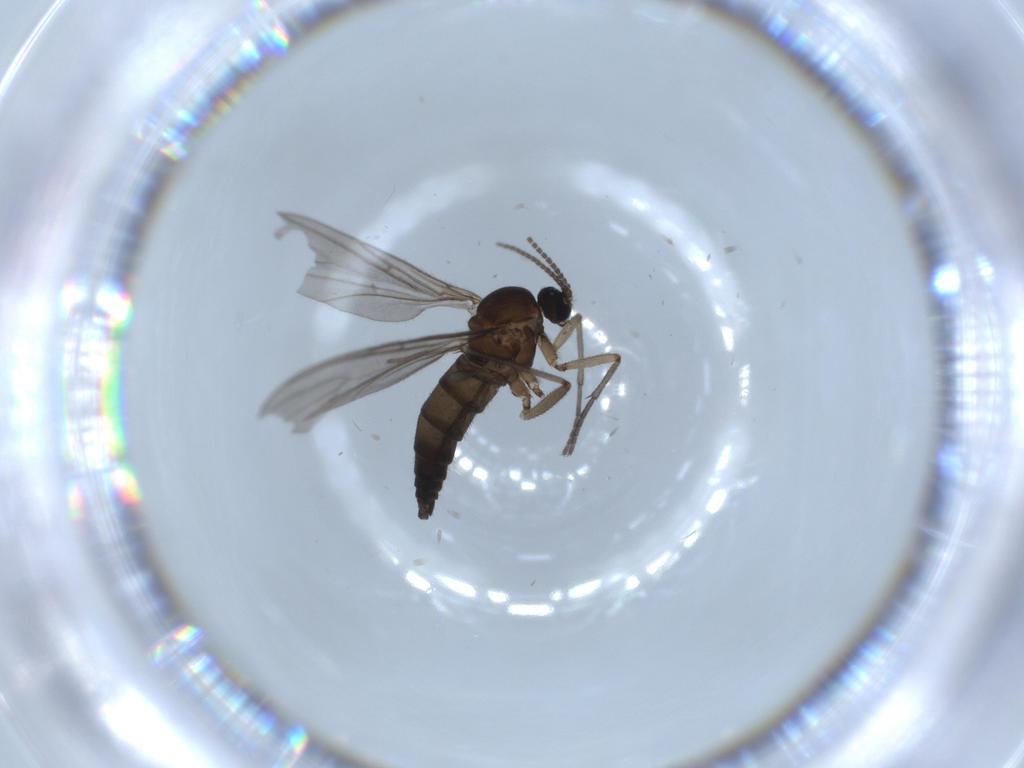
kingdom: Animalia
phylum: Arthropoda
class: Insecta
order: Diptera
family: Sciaridae
